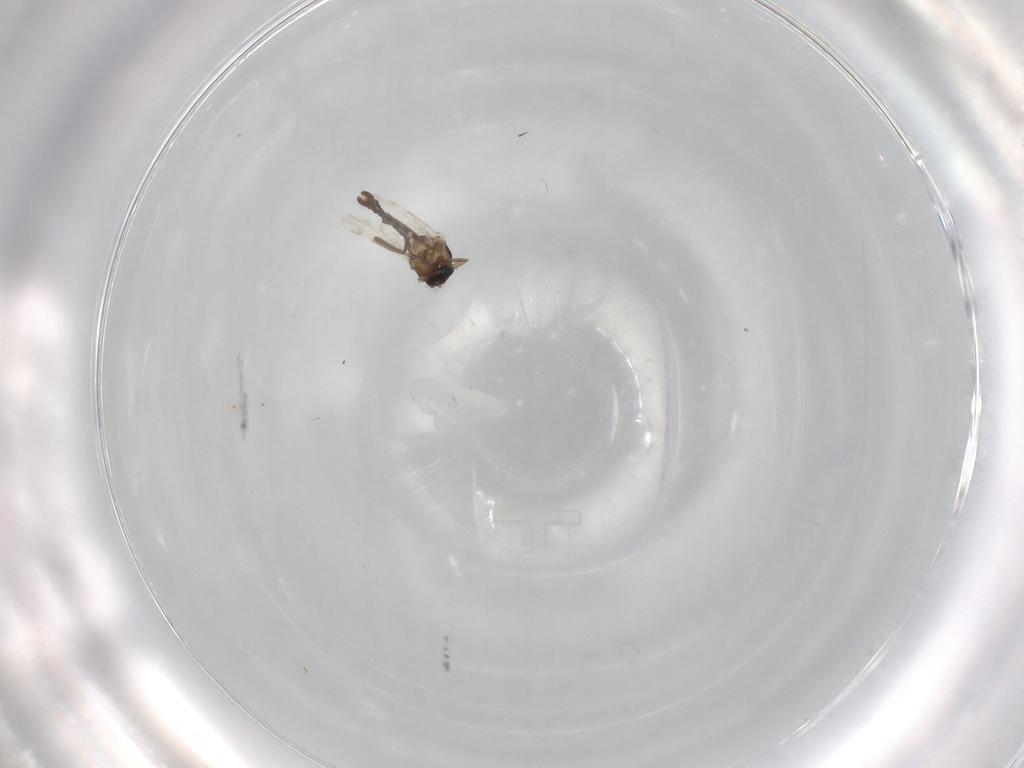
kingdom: Animalia
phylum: Arthropoda
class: Insecta
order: Diptera
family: Ceratopogonidae
